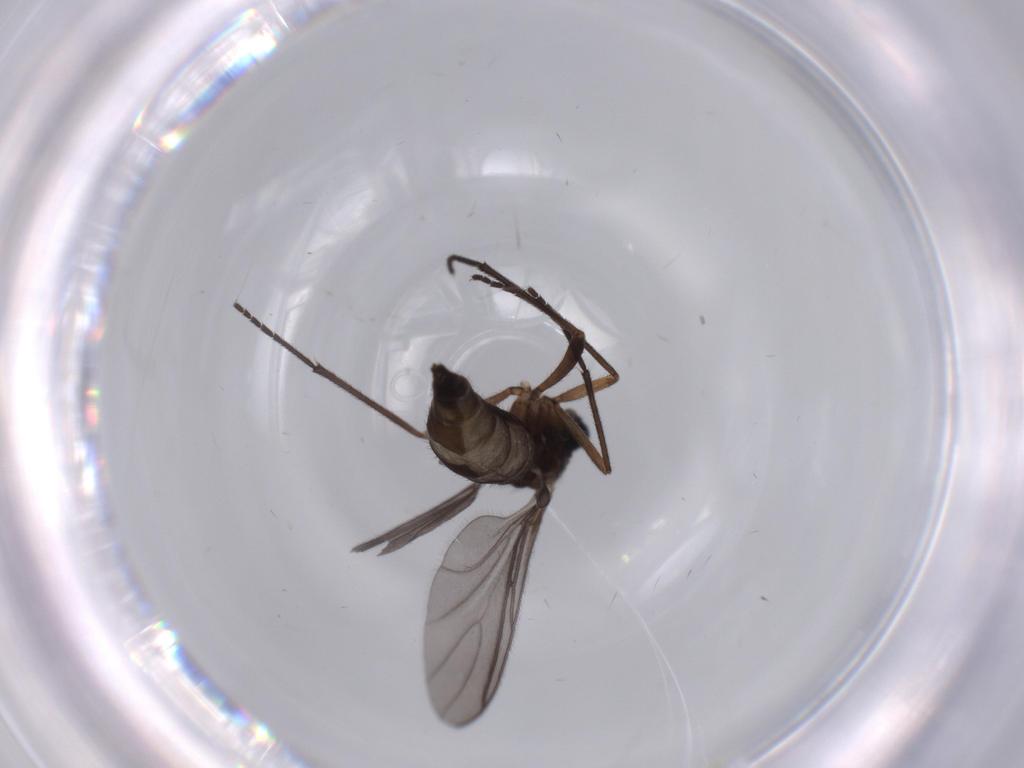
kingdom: Animalia
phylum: Arthropoda
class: Insecta
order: Diptera
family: Sciaridae
